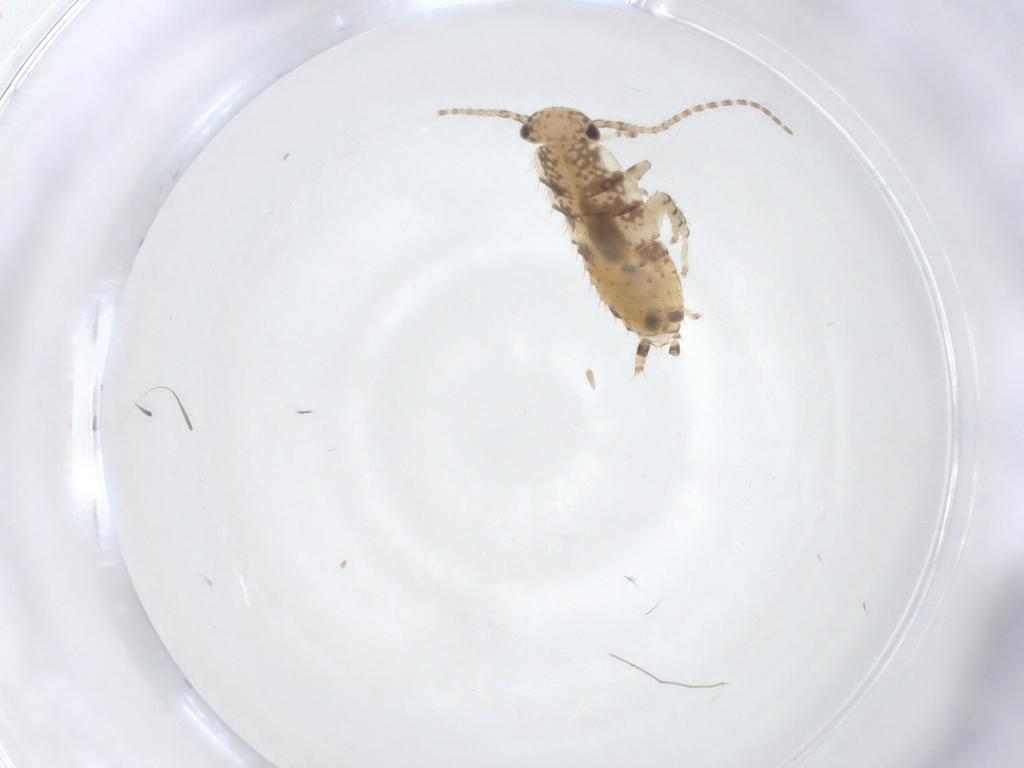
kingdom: Animalia
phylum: Arthropoda
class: Insecta
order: Blattodea
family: Ectobiidae
